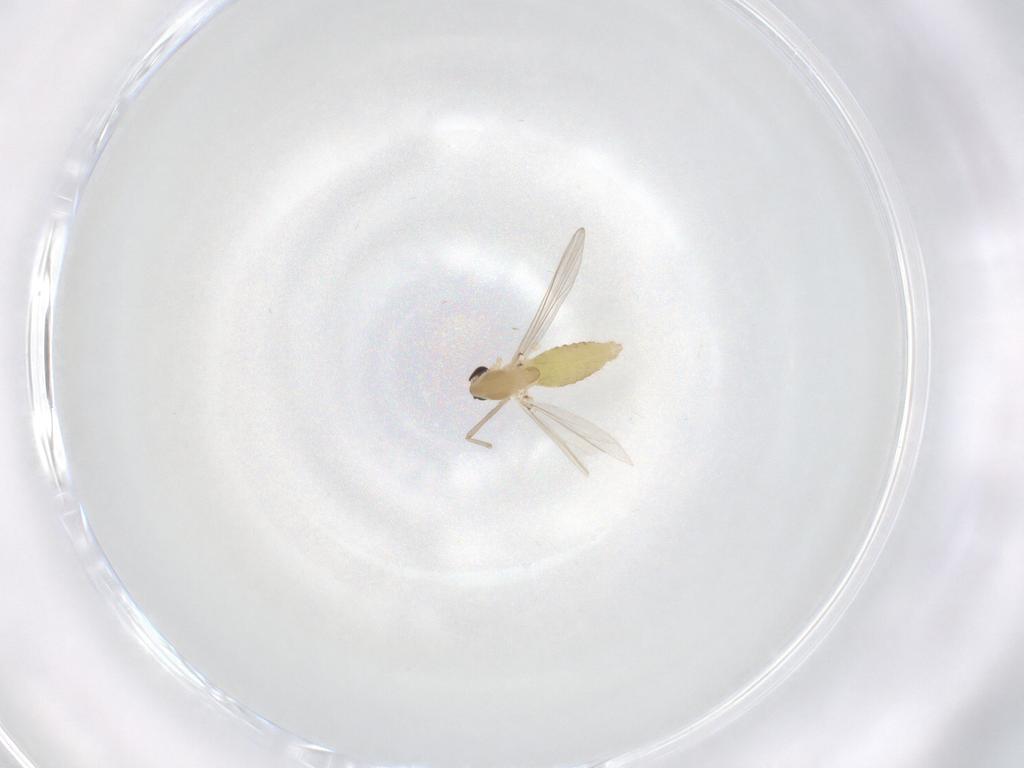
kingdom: Animalia
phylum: Arthropoda
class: Insecta
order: Diptera
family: Chironomidae
